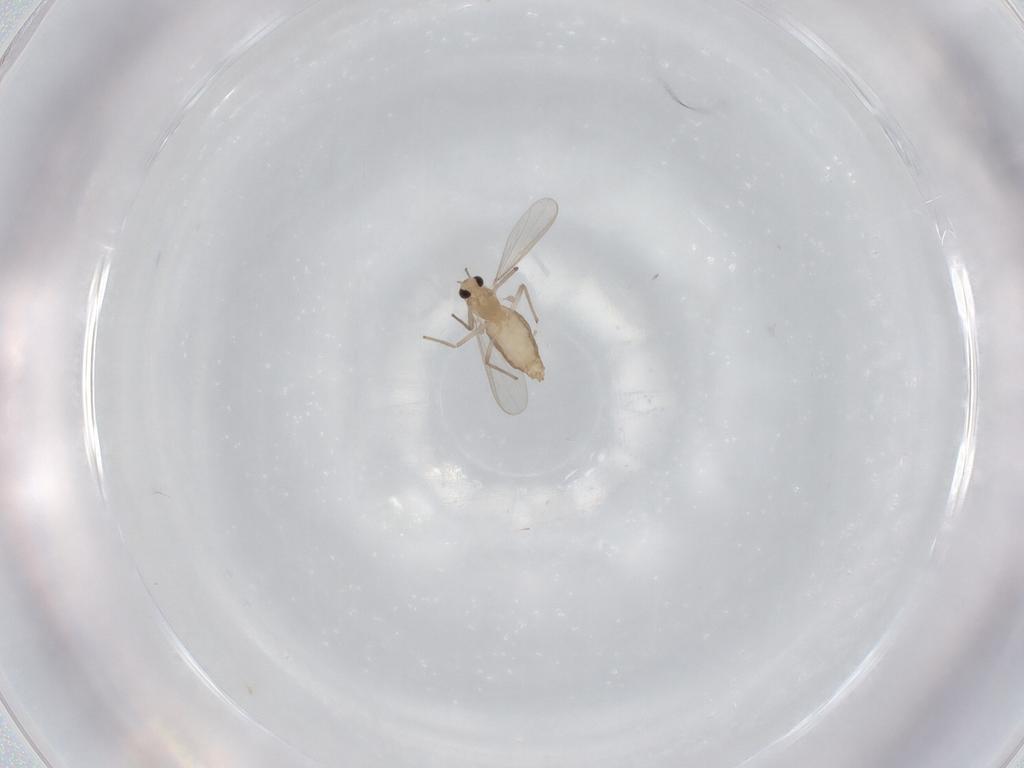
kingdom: Animalia
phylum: Arthropoda
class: Insecta
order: Diptera
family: Chironomidae
